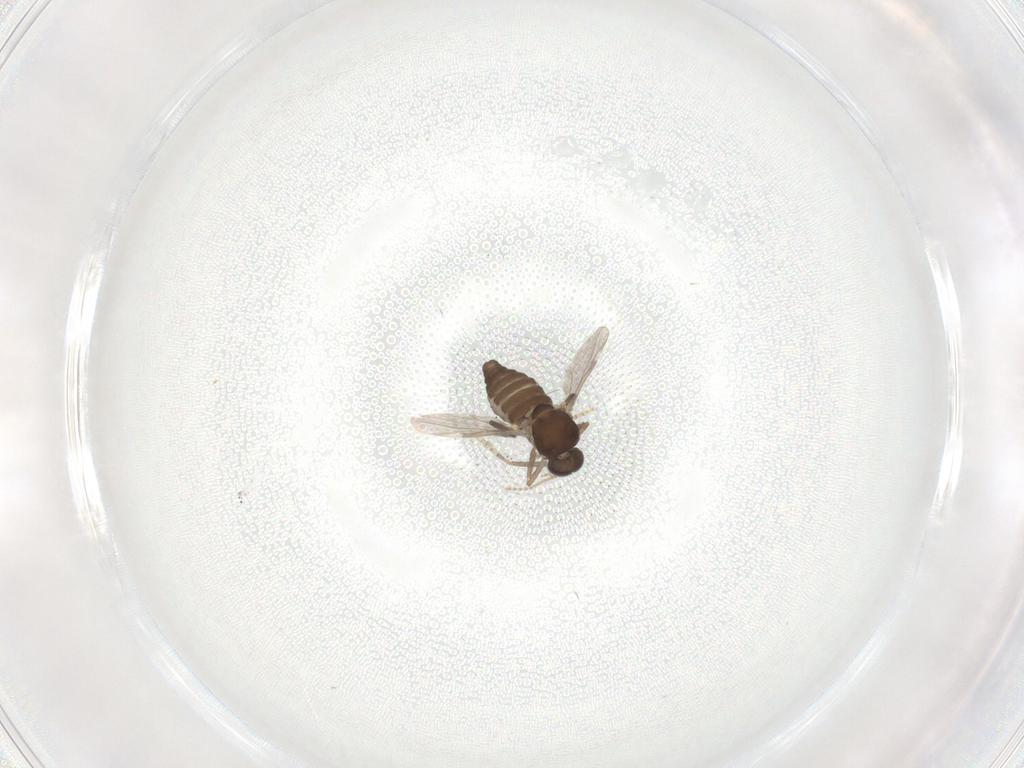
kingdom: Animalia
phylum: Arthropoda
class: Insecta
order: Diptera
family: Ceratopogonidae
